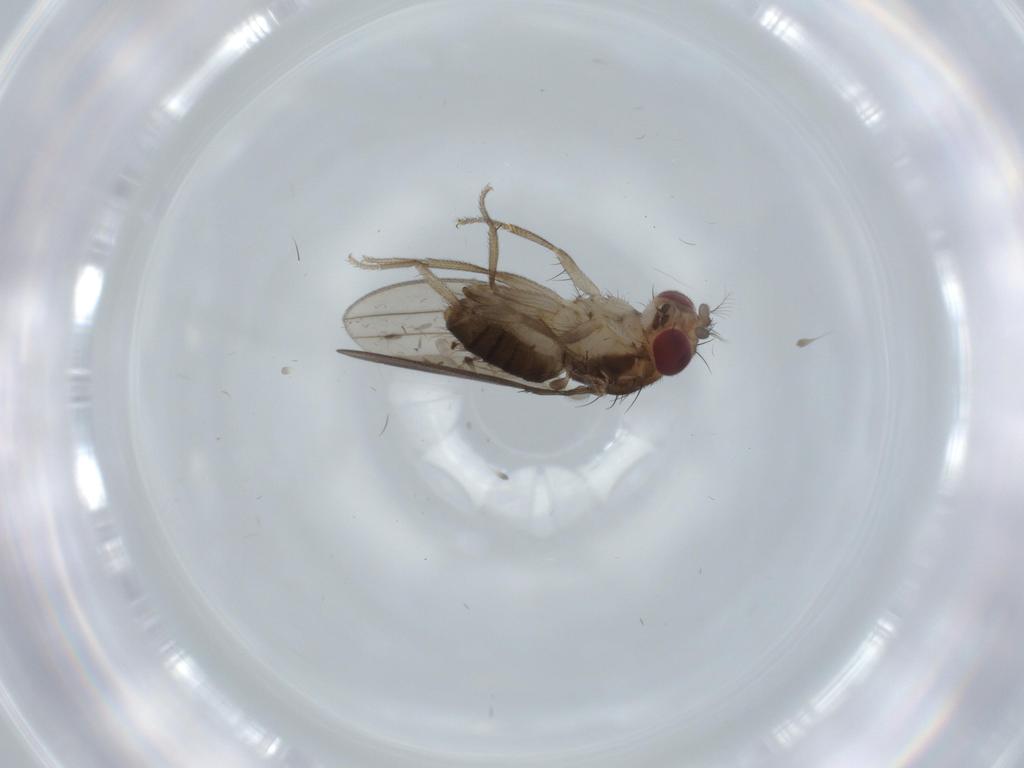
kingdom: Animalia
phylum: Arthropoda
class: Insecta
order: Diptera
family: Drosophilidae
